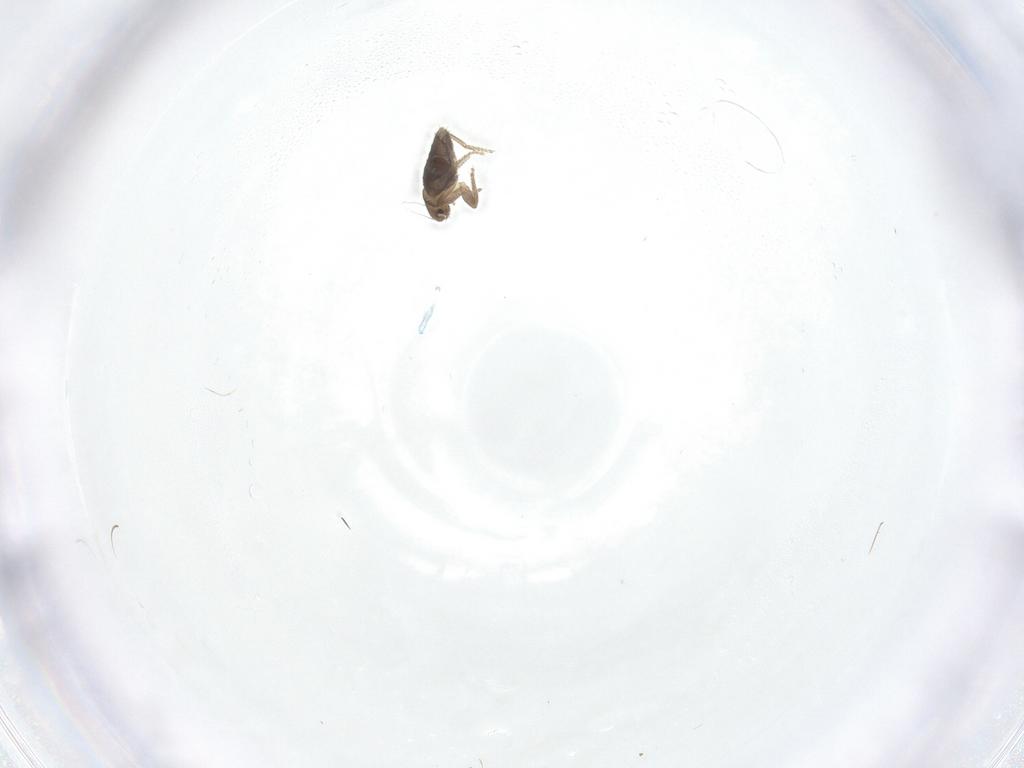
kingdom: Animalia
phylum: Arthropoda
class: Insecta
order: Diptera
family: Phoridae
